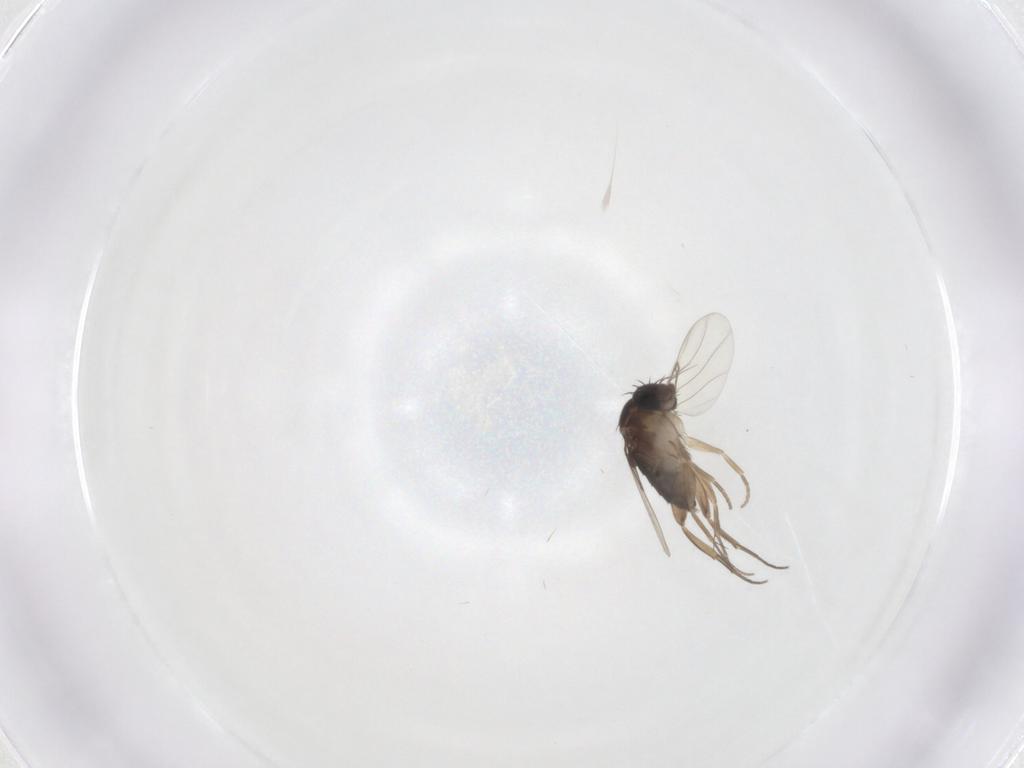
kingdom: Animalia
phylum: Arthropoda
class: Insecta
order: Diptera
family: Phoridae
